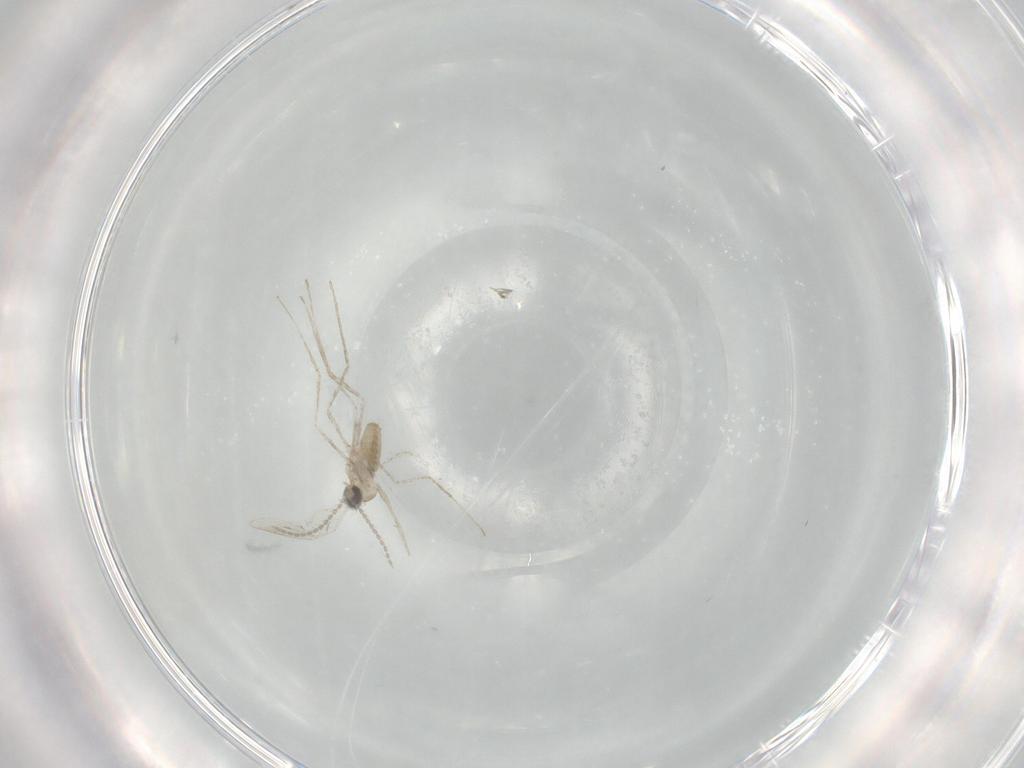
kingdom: Animalia
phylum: Arthropoda
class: Insecta
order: Diptera
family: Cecidomyiidae
